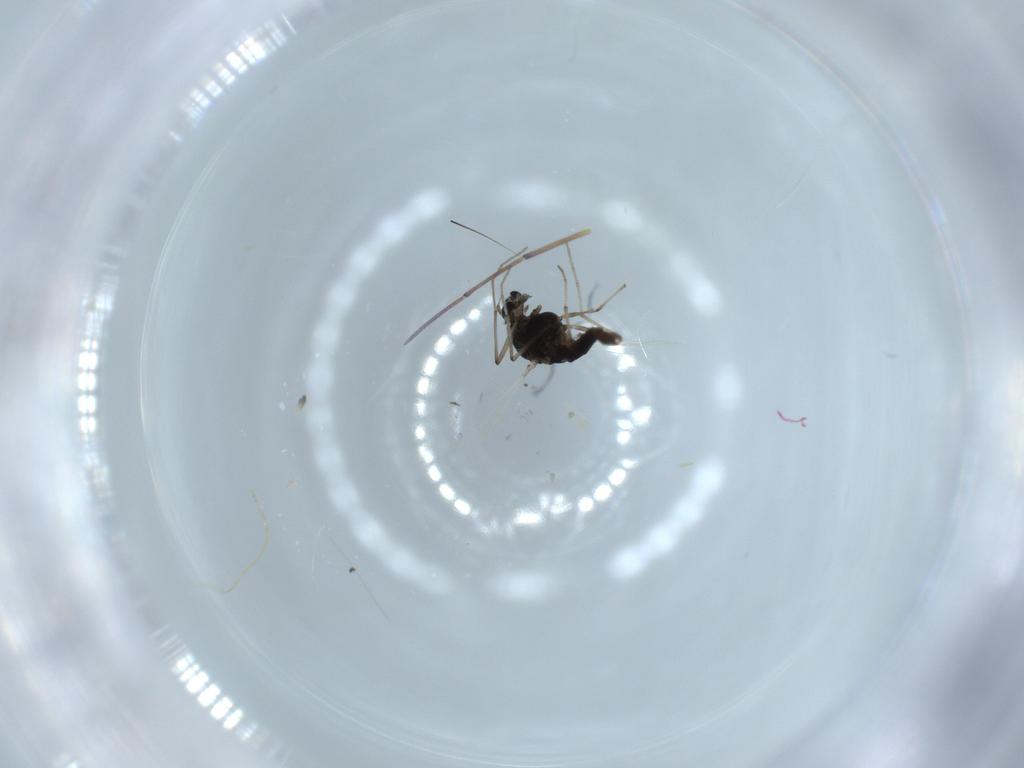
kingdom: Animalia
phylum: Arthropoda
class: Insecta
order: Diptera
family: Chironomidae
